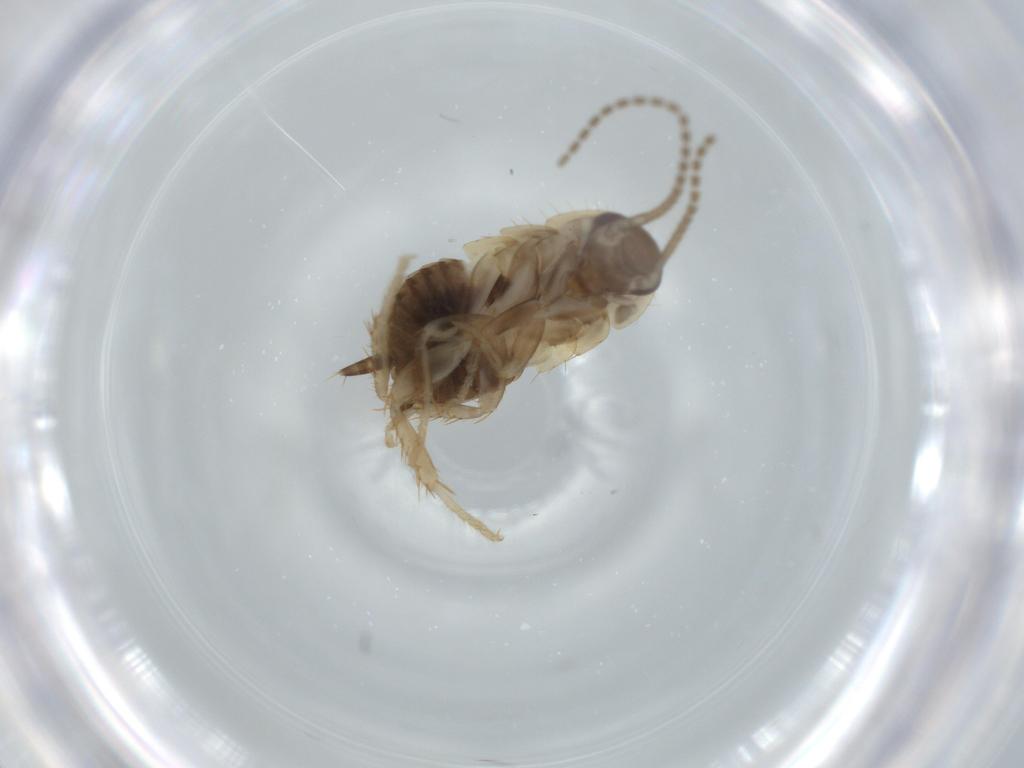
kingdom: Animalia
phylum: Arthropoda
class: Insecta
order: Blattodea
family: Ectobiidae
